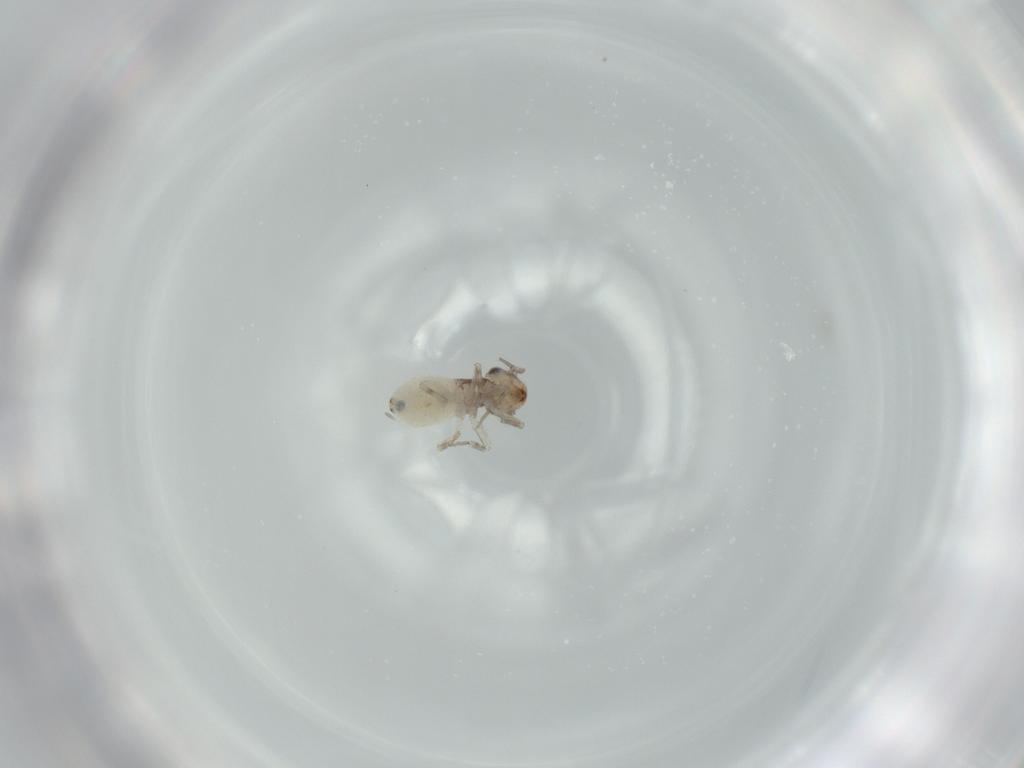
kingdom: Animalia
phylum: Arthropoda
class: Insecta
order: Psocodea
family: Lepidopsocidae
